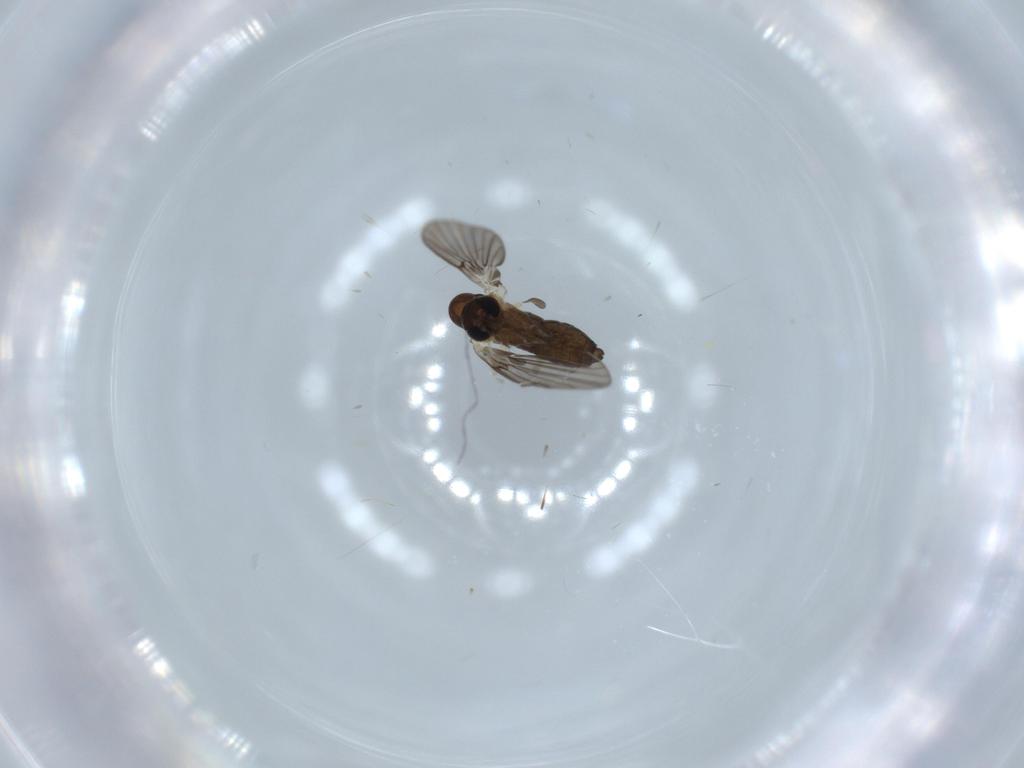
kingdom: Animalia
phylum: Arthropoda
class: Insecta
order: Diptera
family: Psychodidae
